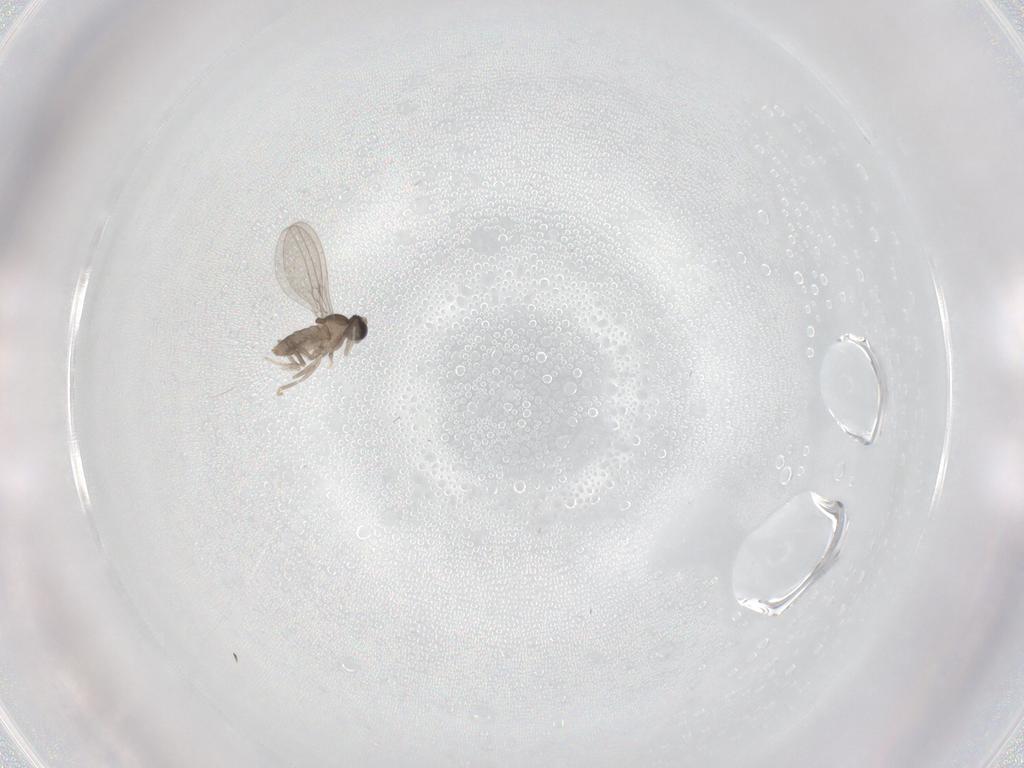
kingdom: Animalia
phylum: Arthropoda
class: Insecta
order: Diptera
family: Cecidomyiidae
